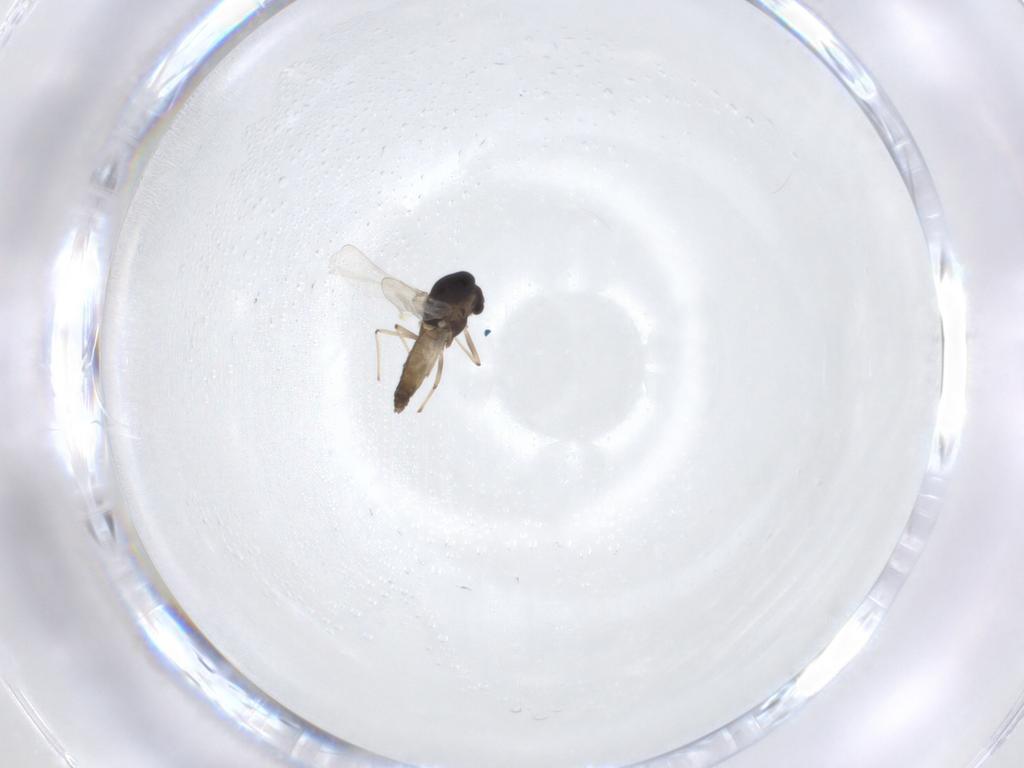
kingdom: Animalia
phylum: Arthropoda
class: Insecta
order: Diptera
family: Chironomidae
